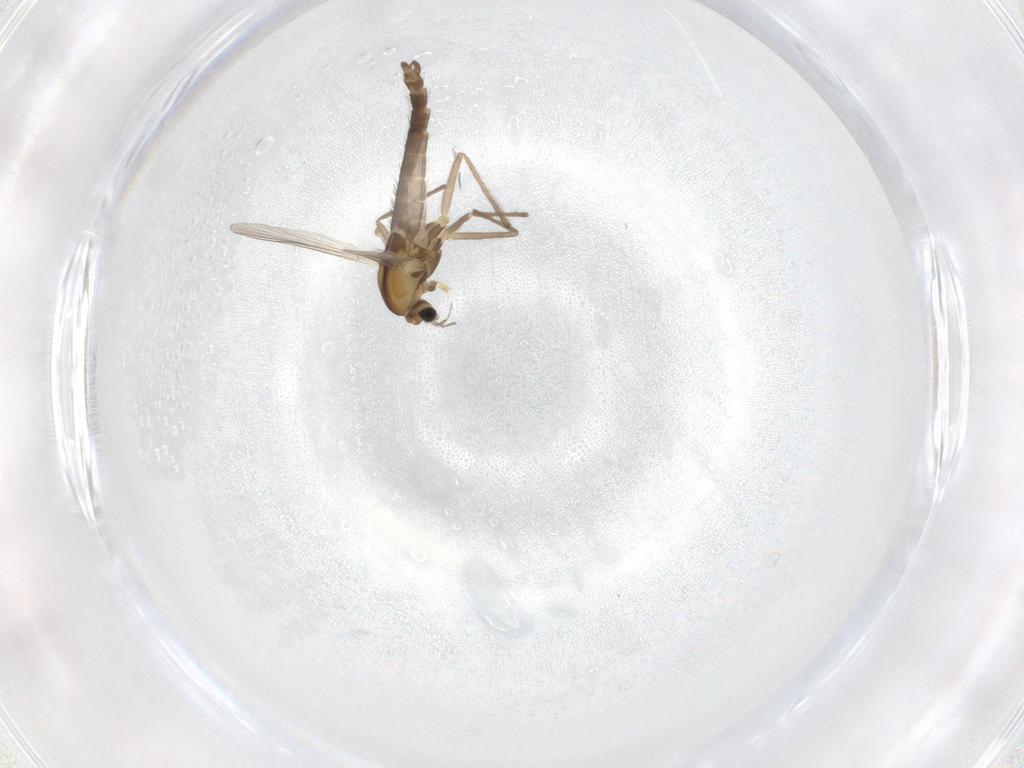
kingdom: Animalia
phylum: Arthropoda
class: Insecta
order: Diptera
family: Chironomidae
